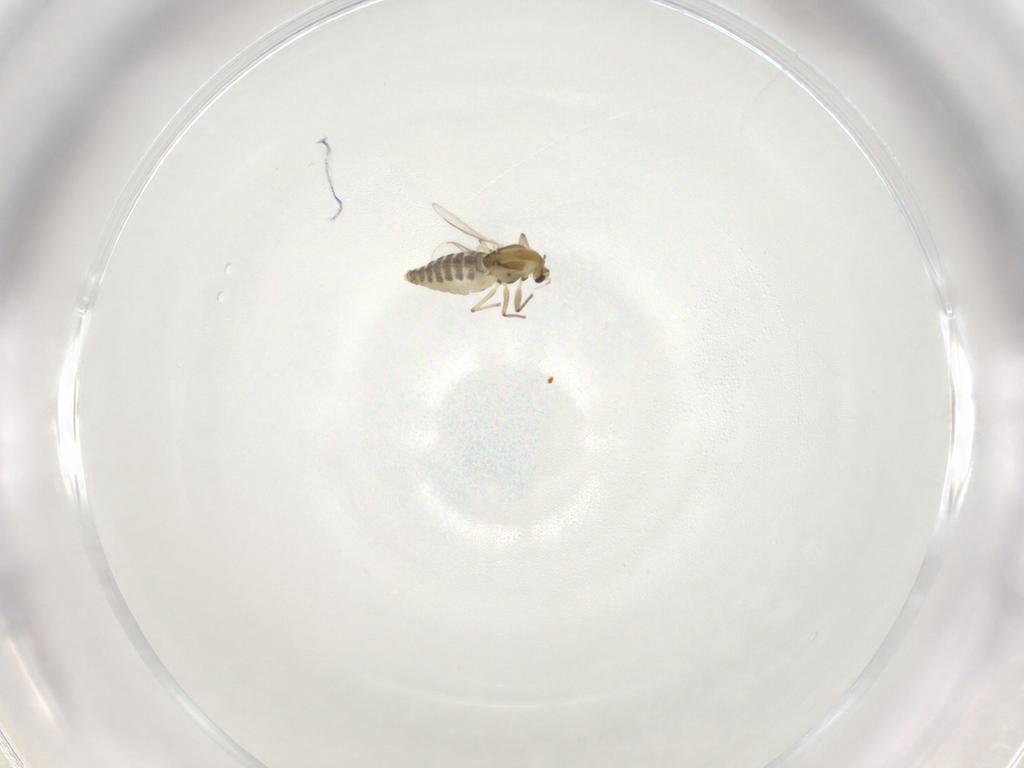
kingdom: Animalia
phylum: Arthropoda
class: Insecta
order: Diptera
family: Chironomidae
